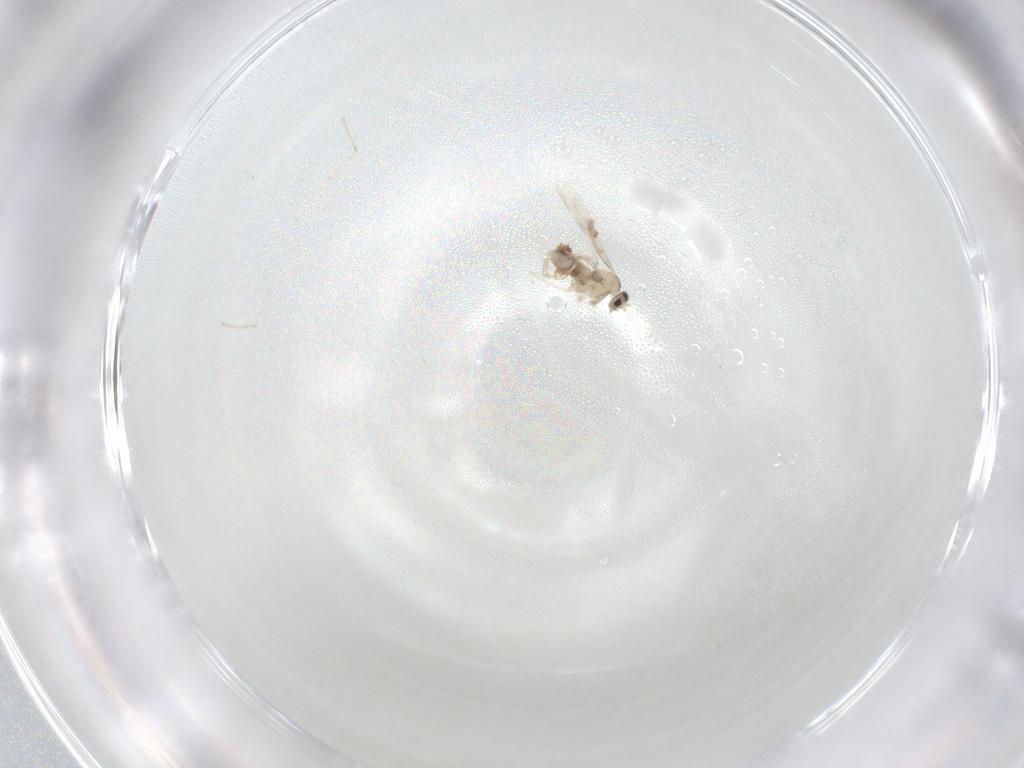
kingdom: Animalia
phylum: Arthropoda
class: Insecta
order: Diptera
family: Cecidomyiidae
